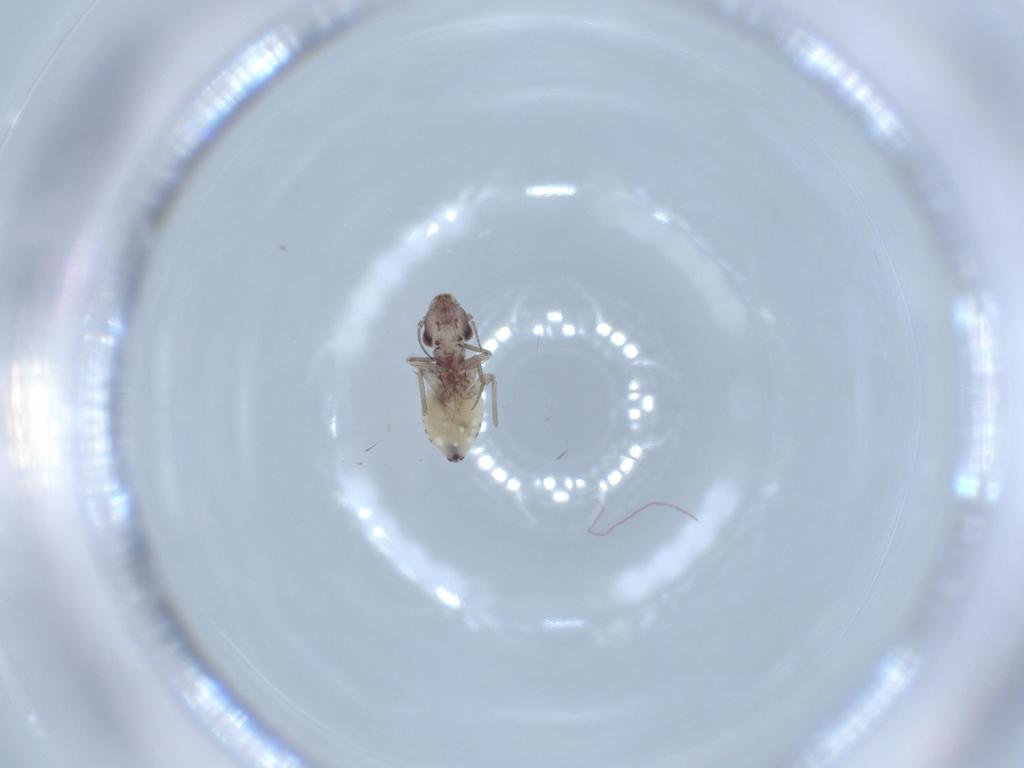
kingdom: Animalia
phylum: Arthropoda
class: Insecta
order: Psocodea
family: Lepidopsocidae
